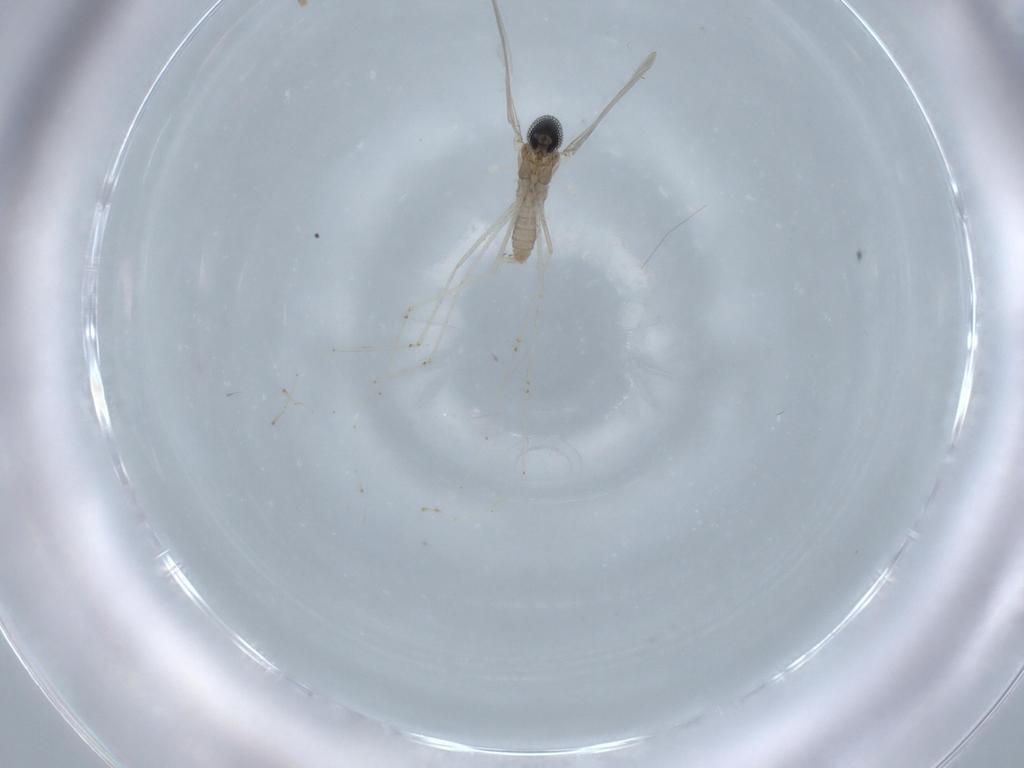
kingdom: Animalia
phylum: Arthropoda
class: Insecta
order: Diptera
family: Cecidomyiidae
